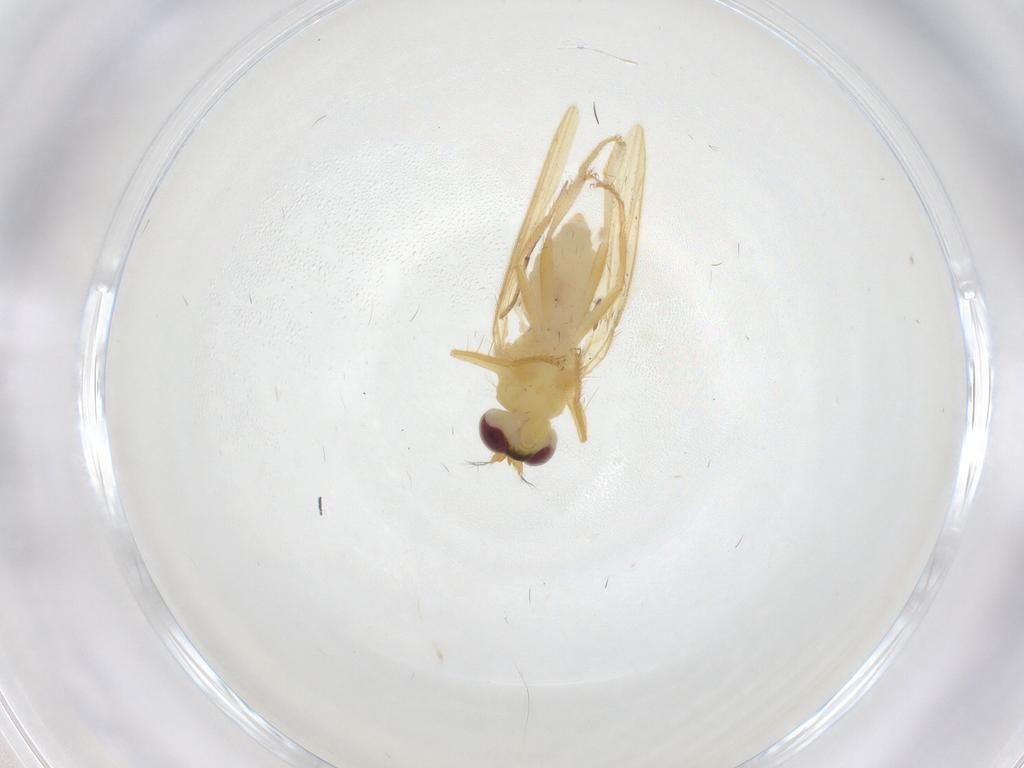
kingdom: Animalia
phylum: Arthropoda
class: Insecta
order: Diptera
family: Periscelididae
